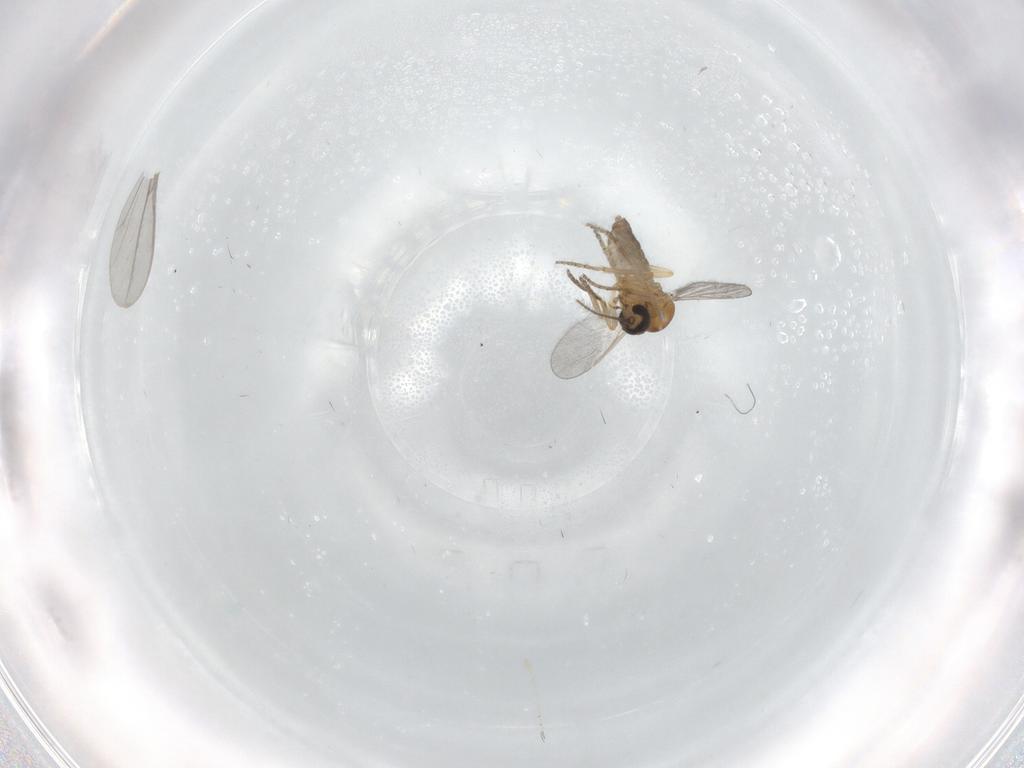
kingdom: Animalia
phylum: Arthropoda
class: Insecta
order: Diptera
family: Cecidomyiidae
